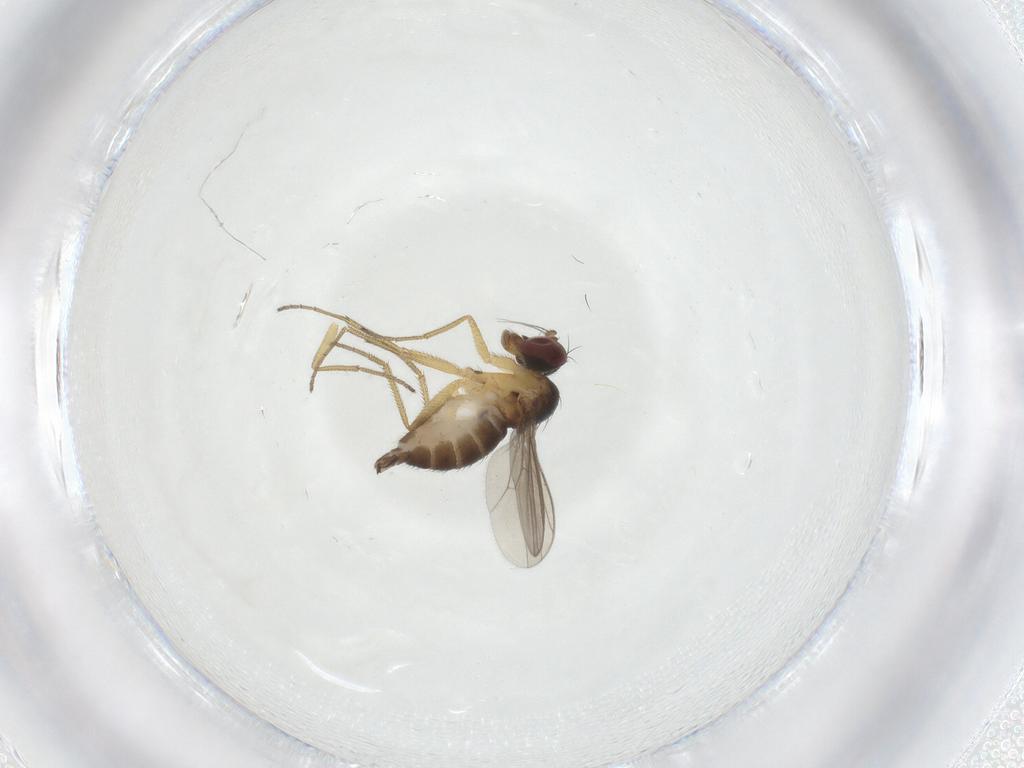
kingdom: Animalia
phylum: Arthropoda
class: Insecta
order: Diptera
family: Dolichopodidae
